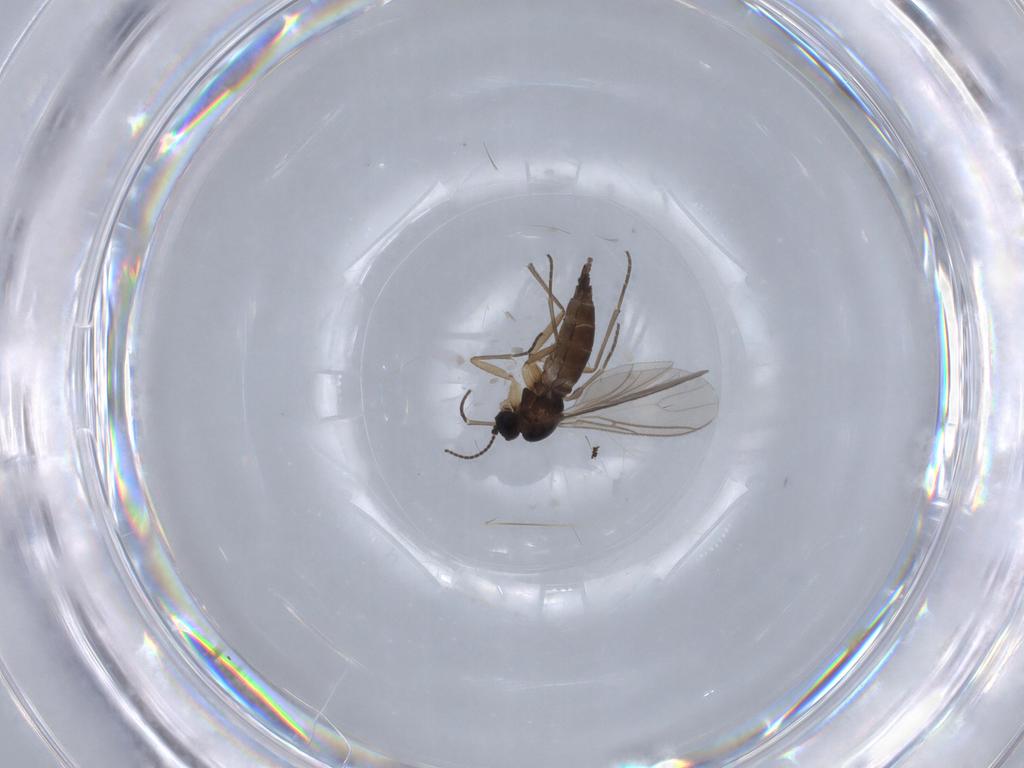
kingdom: Animalia
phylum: Arthropoda
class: Insecta
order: Diptera
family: Sciaridae
